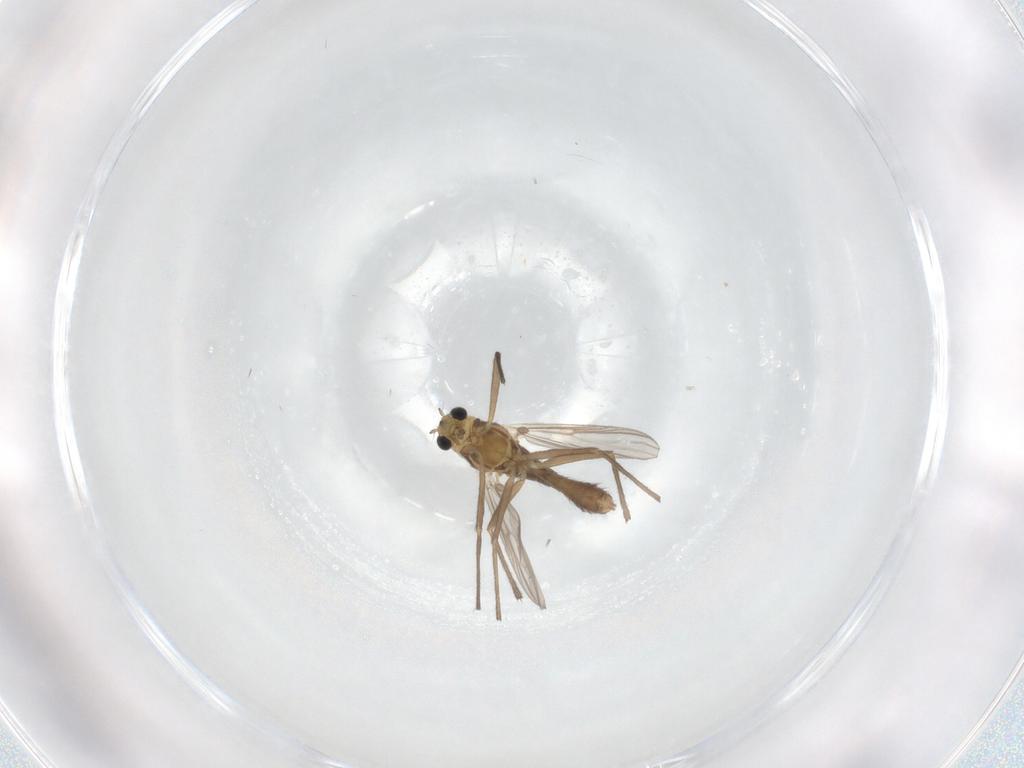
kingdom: Animalia
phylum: Arthropoda
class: Insecta
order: Diptera
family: Chironomidae
